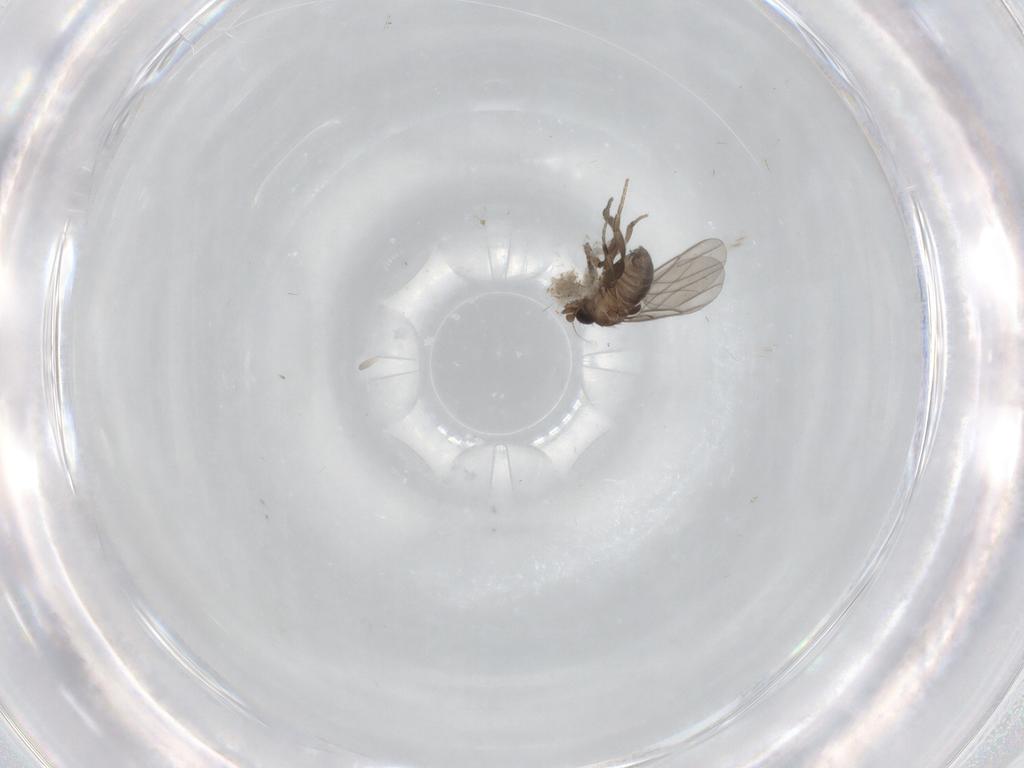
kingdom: Animalia
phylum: Arthropoda
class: Insecta
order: Diptera
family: Phoridae
